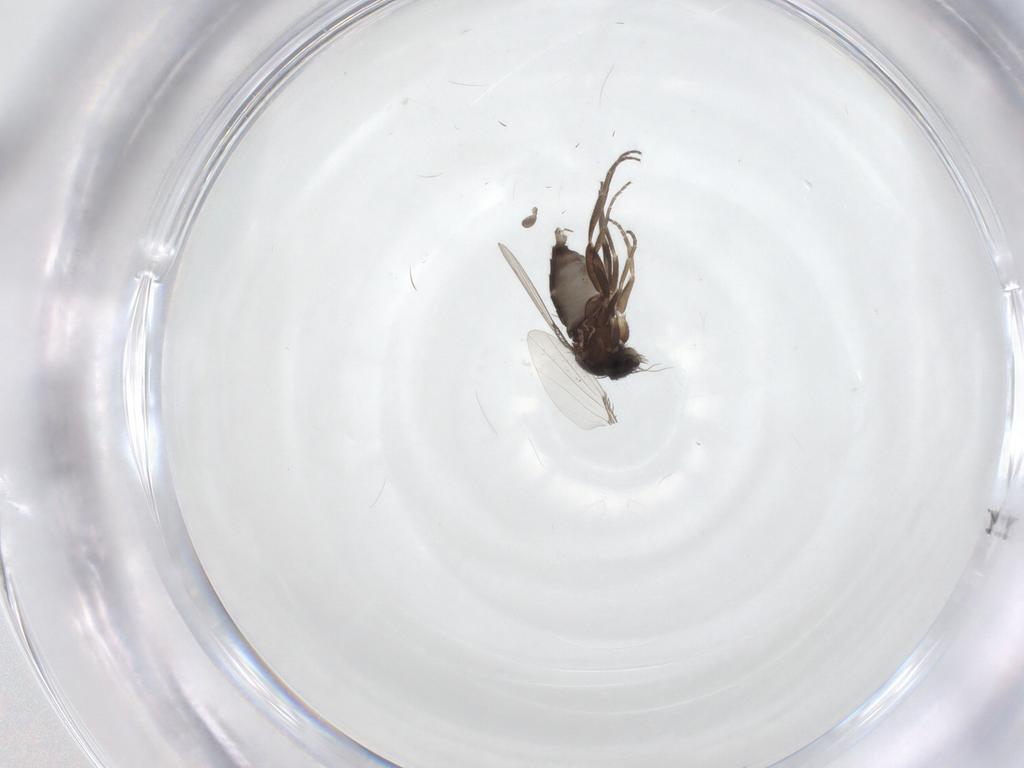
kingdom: Animalia
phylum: Arthropoda
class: Insecta
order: Diptera
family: Phoridae
